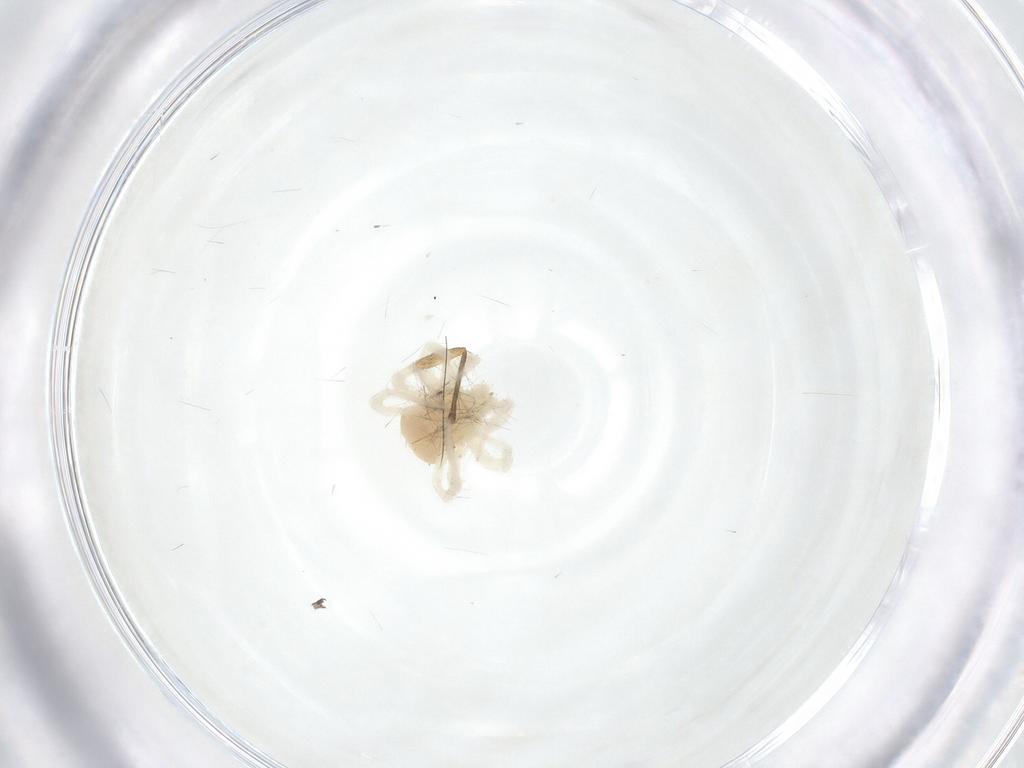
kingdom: Animalia
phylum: Arthropoda
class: Arachnida
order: Trombidiformes
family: Anystidae
